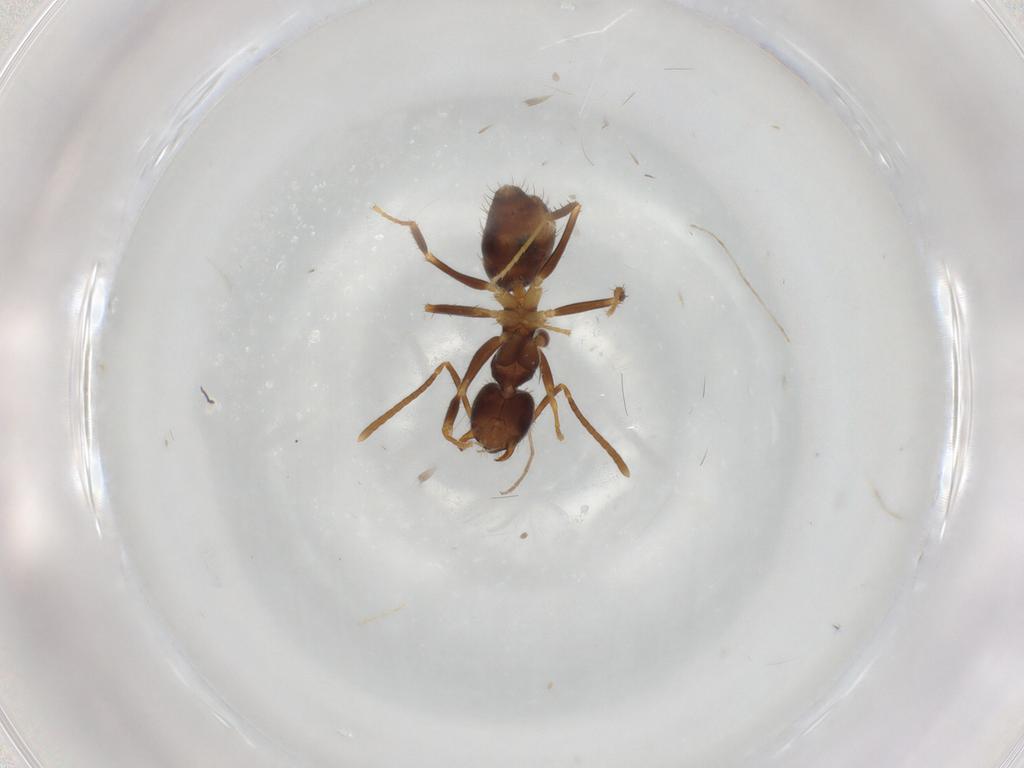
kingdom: Animalia
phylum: Arthropoda
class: Insecta
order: Hymenoptera
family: Formicidae
